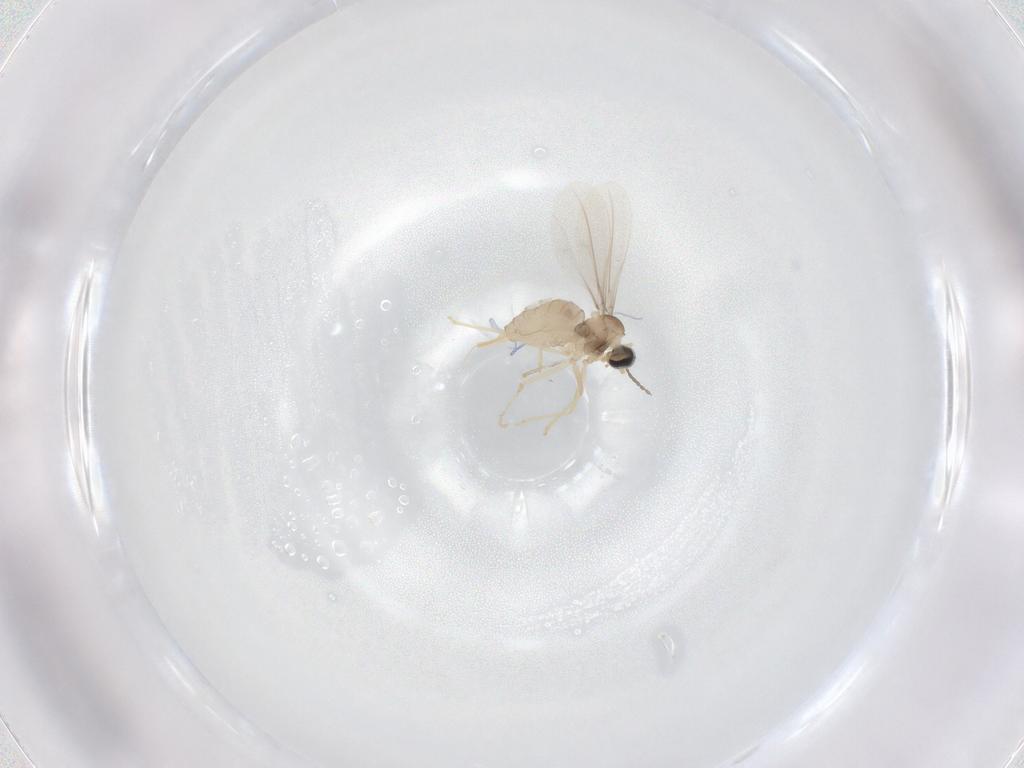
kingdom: Animalia
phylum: Arthropoda
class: Insecta
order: Diptera
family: Cecidomyiidae
